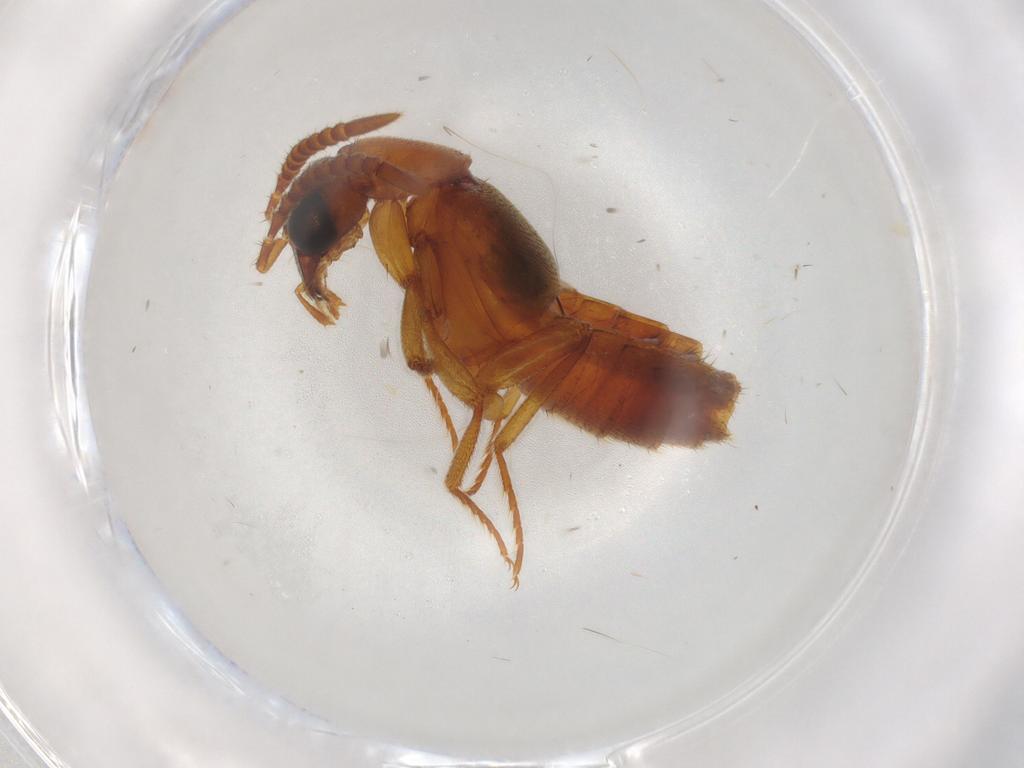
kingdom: Animalia
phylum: Arthropoda
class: Insecta
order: Coleoptera
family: Staphylinidae
